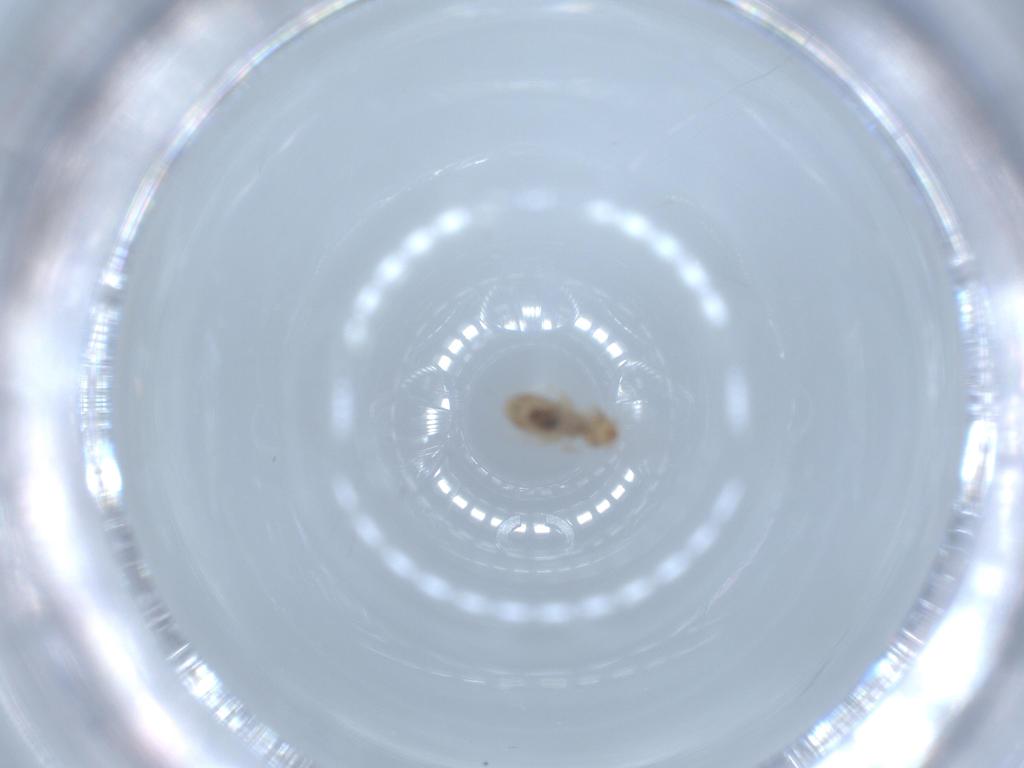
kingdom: Animalia
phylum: Arthropoda
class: Insecta
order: Psocodea
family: Liposcelididae
